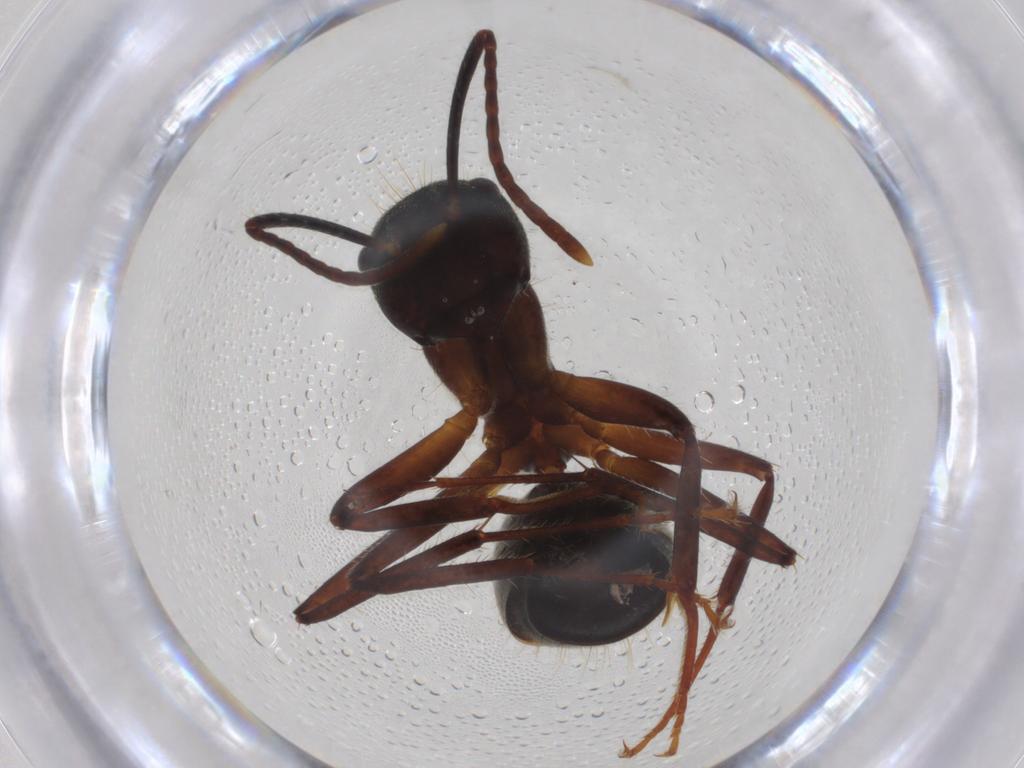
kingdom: Animalia
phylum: Arthropoda
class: Insecta
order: Hymenoptera
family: Formicidae
